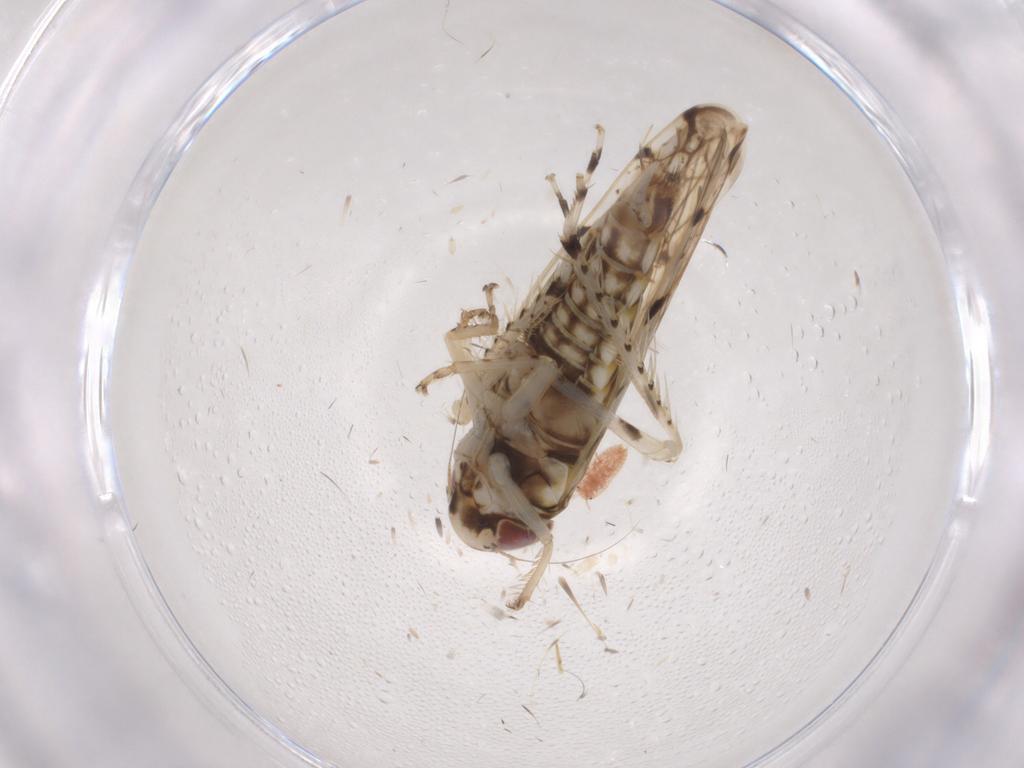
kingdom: Animalia
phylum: Arthropoda
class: Insecta
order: Hemiptera
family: Cicadellidae
